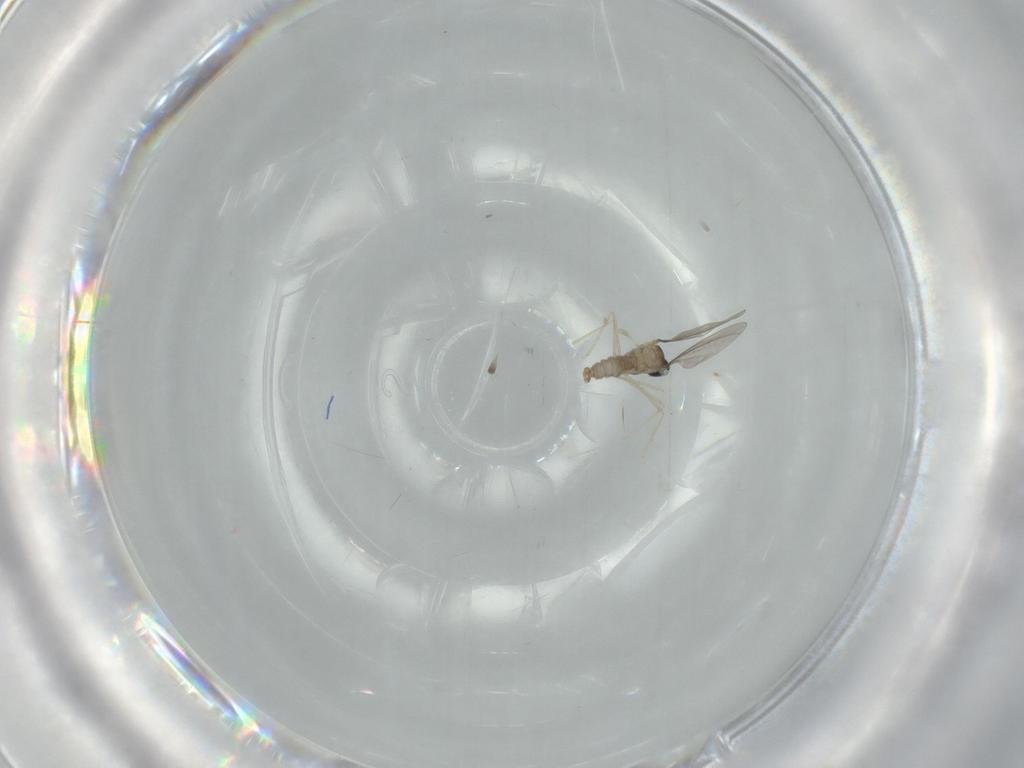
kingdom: Animalia
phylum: Arthropoda
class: Insecta
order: Diptera
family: Cecidomyiidae
